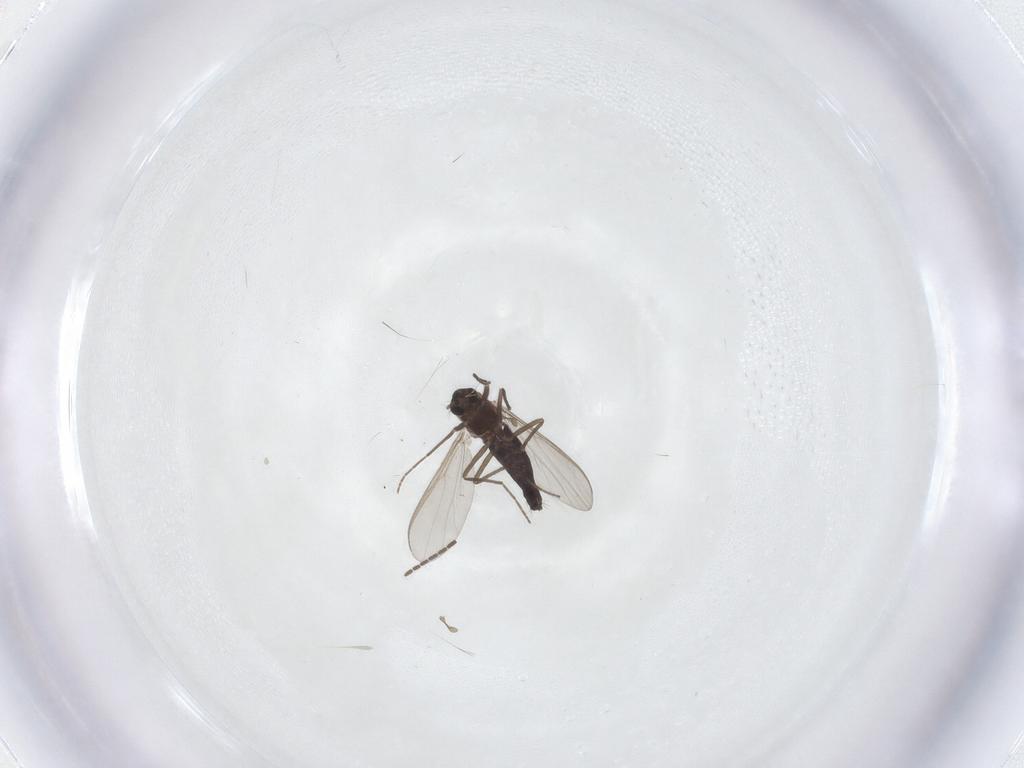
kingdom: Animalia
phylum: Arthropoda
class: Insecta
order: Diptera
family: Chironomidae
